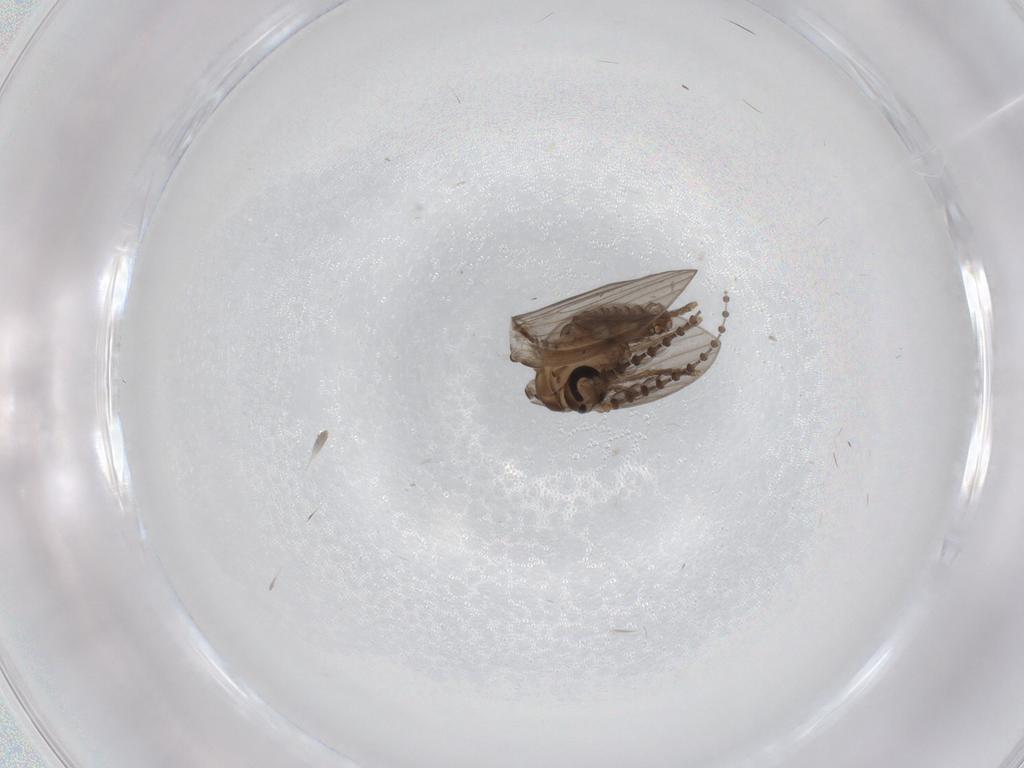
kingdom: Animalia
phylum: Arthropoda
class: Insecta
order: Diptera
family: Psychodidae
